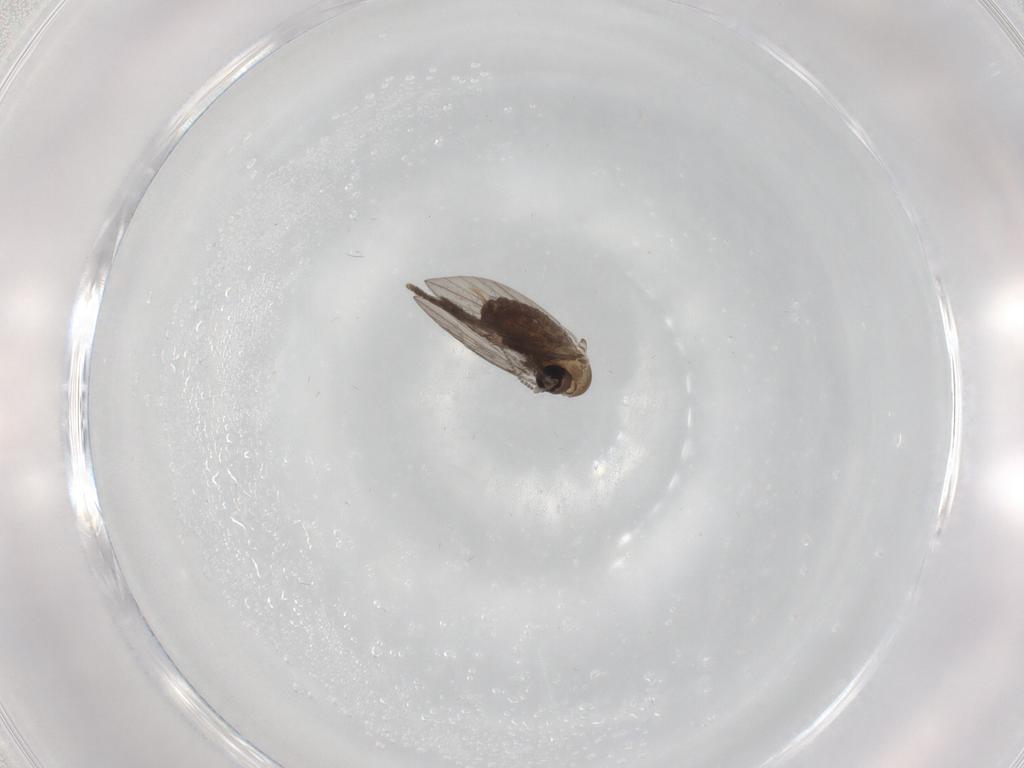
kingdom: Animalia
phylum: Arthropoda
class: Insecta
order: Diptera
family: Psychodidae
